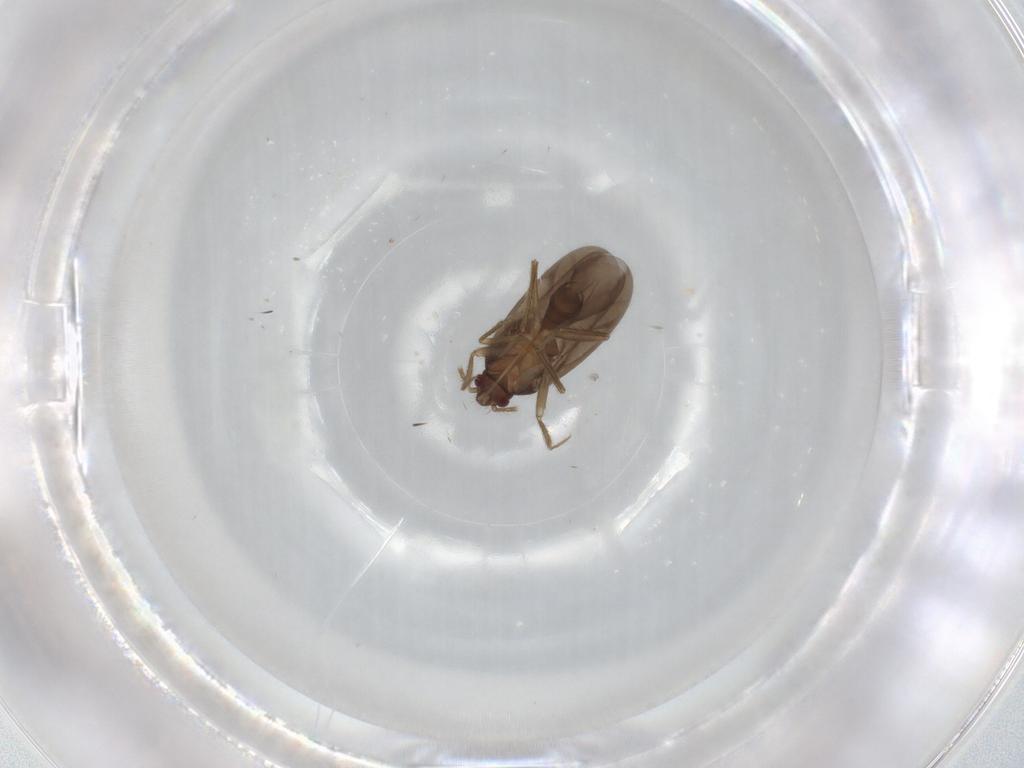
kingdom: Animalia
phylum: Arthropoda
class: Insecta
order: Hemiptera
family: Ceratocombidae
